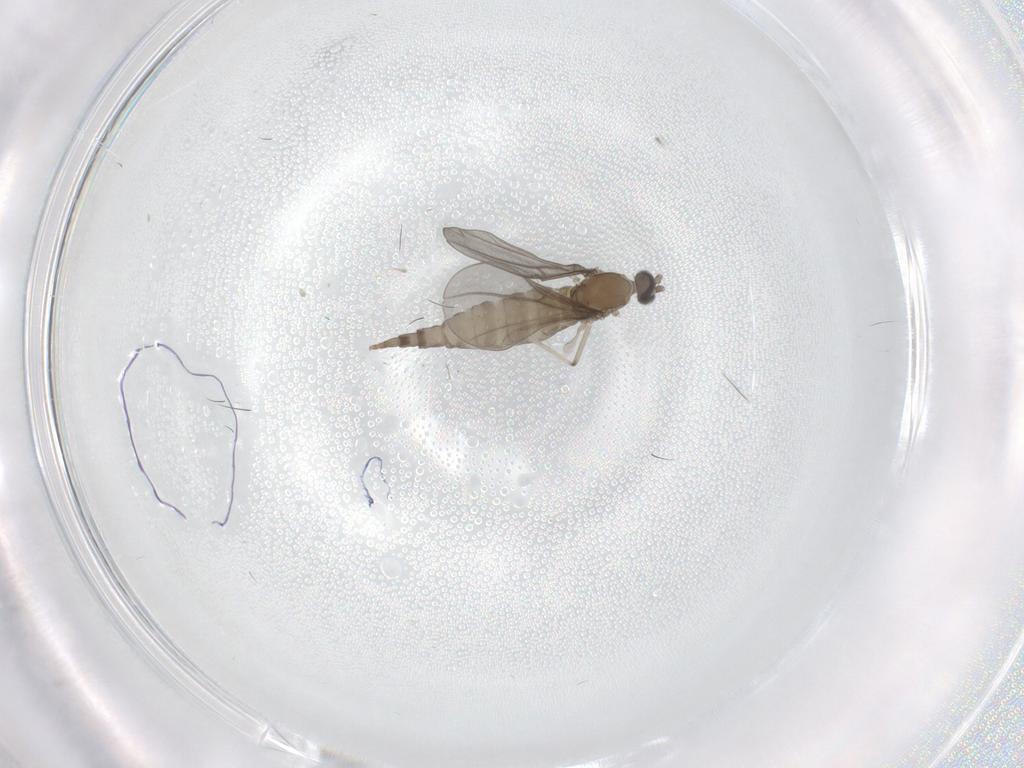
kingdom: Animalia
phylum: Arthropoda
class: Insecta
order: Diptera
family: Cecidomyiidae
